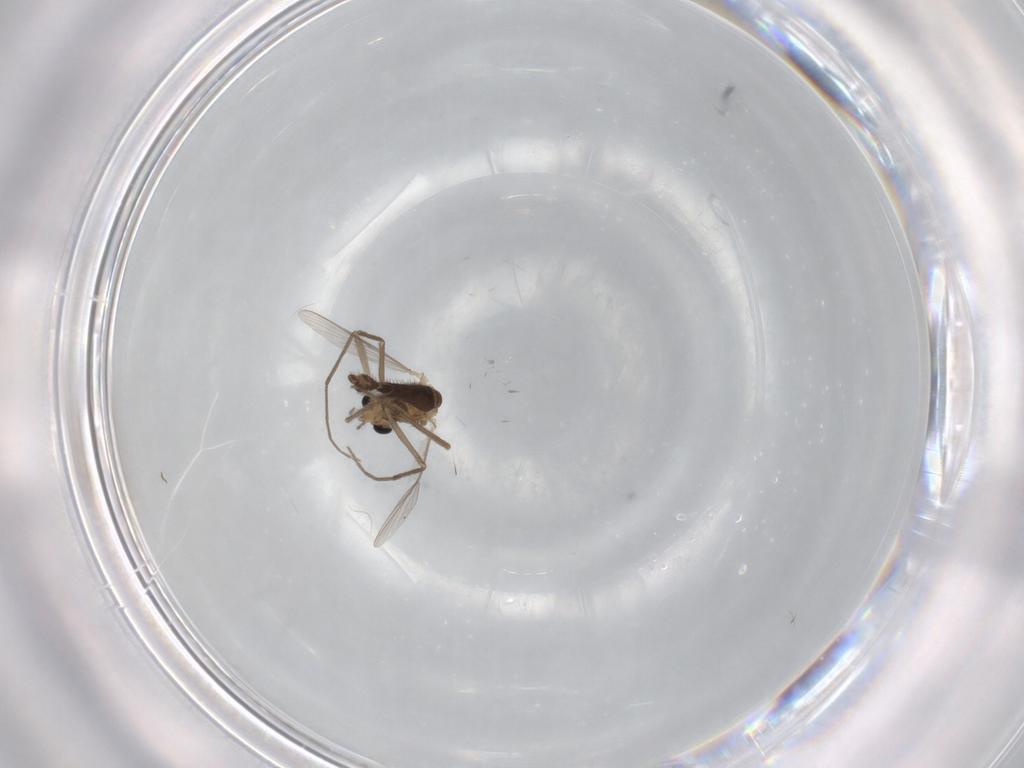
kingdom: Animalia
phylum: Arthropoda
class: Insecta
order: Diptera
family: Chironomidae
